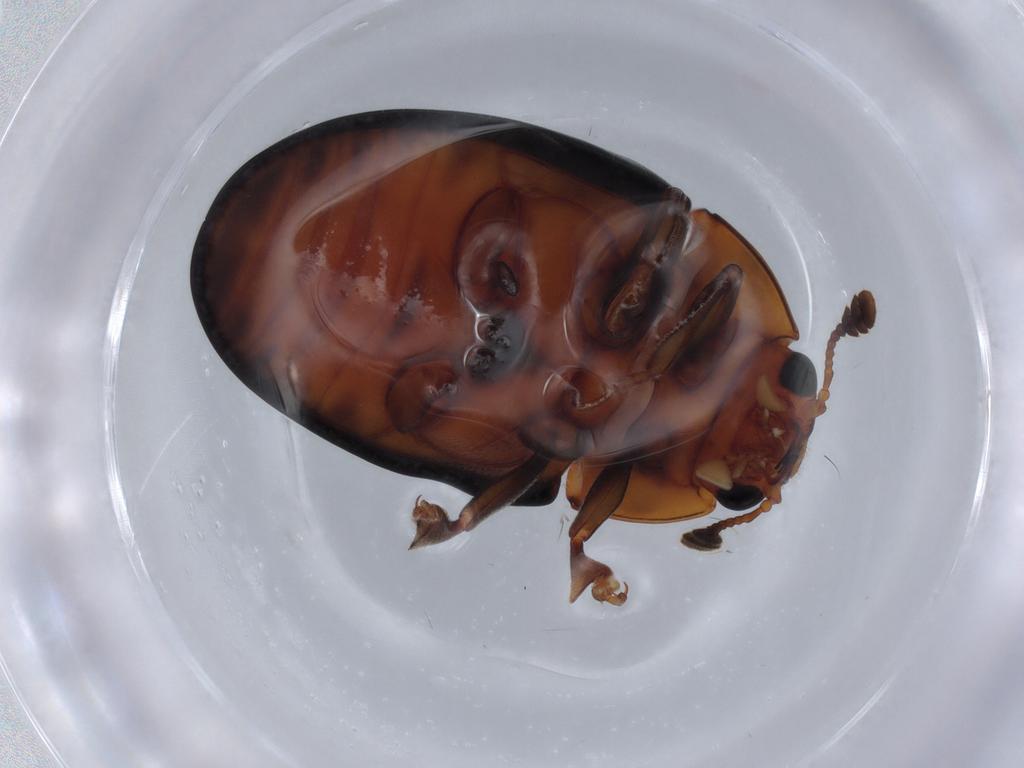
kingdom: Animalia
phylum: Arthropoda
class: Insecta
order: Coleoptera
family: Erotylidae
